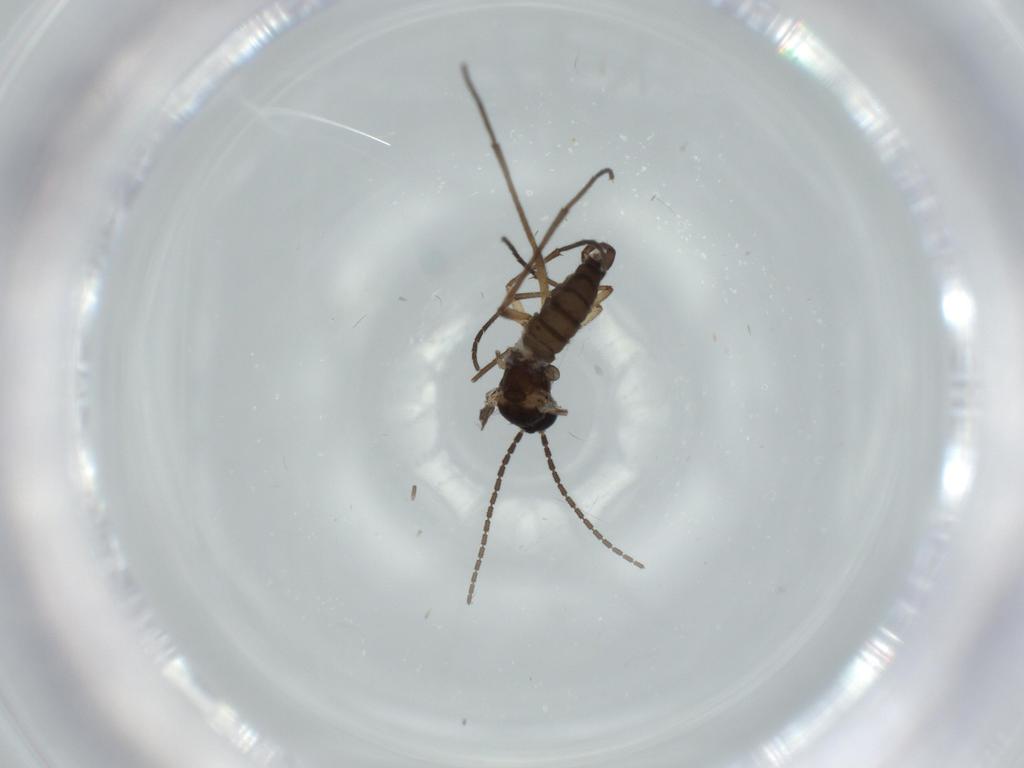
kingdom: Animalia
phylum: Arthropoda
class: Insecta
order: Diptera
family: Sciaridae
